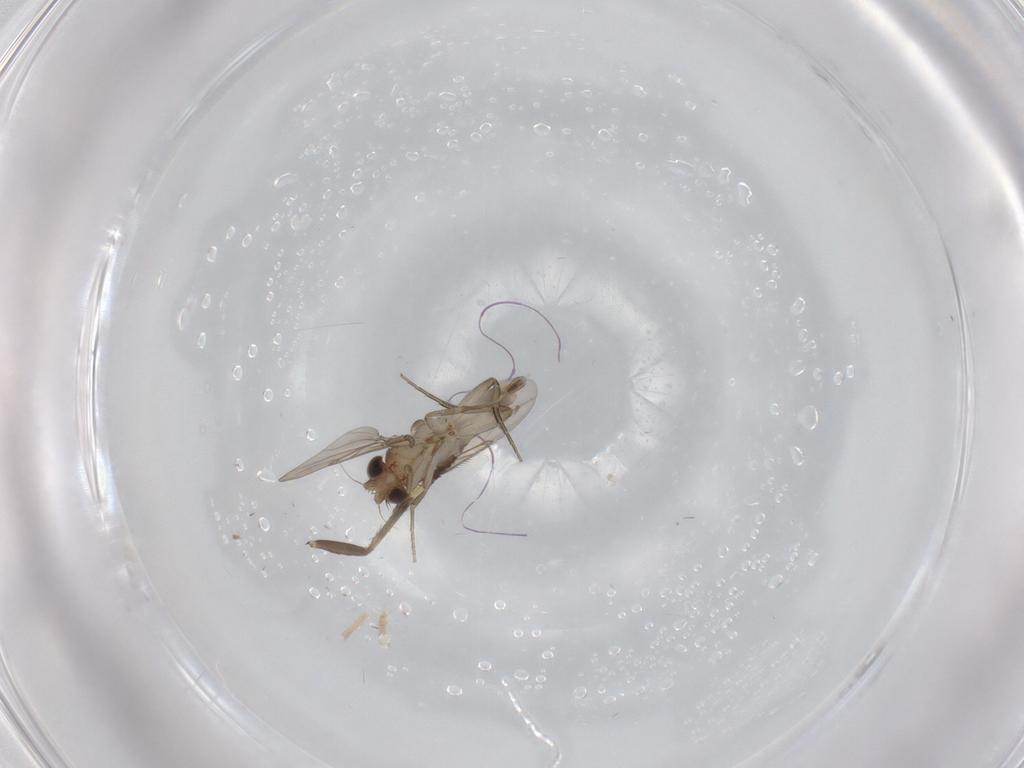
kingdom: Animalia
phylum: Arthropoda
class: Insecta
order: Diptera
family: Phoridae
